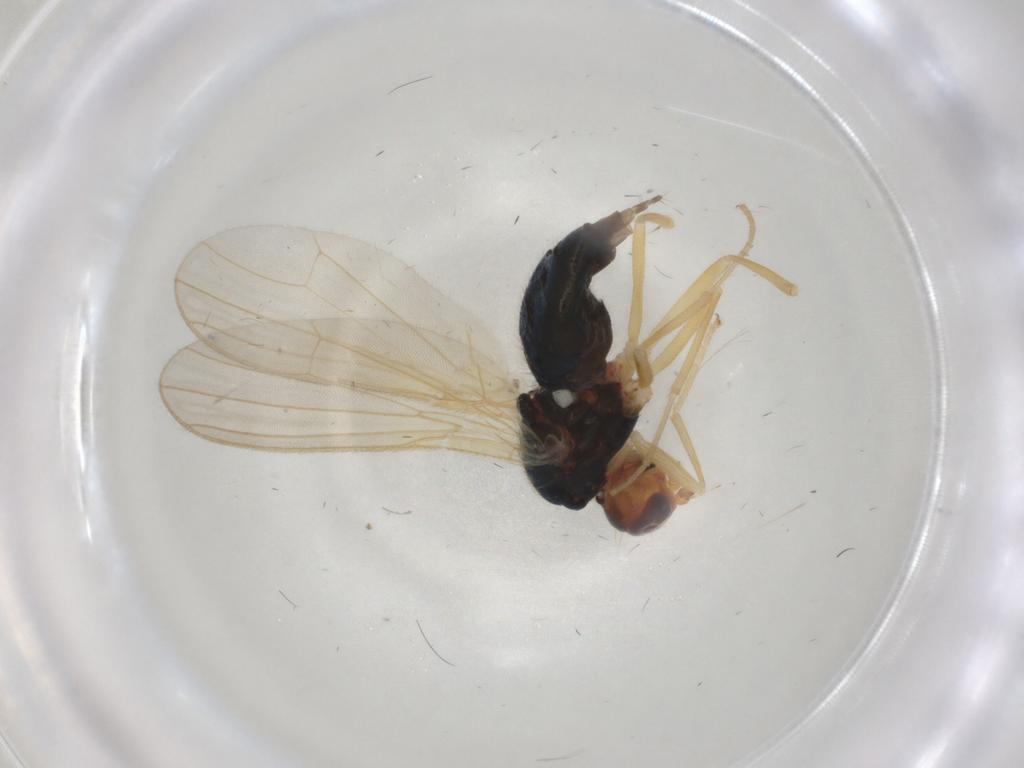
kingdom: Animalia
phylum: Arthropoda
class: Insecta
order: Diptera
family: Psilidae
